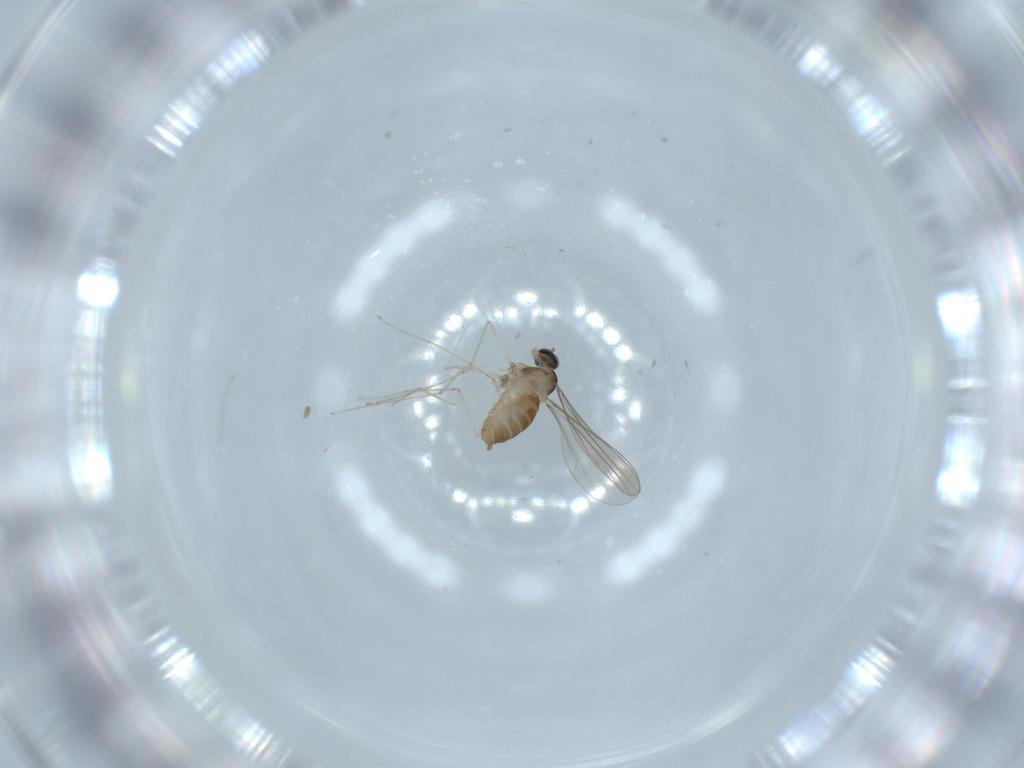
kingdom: Animalia
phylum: Arthropoda
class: Insecta
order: Diptera
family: Cecidomyiidae
